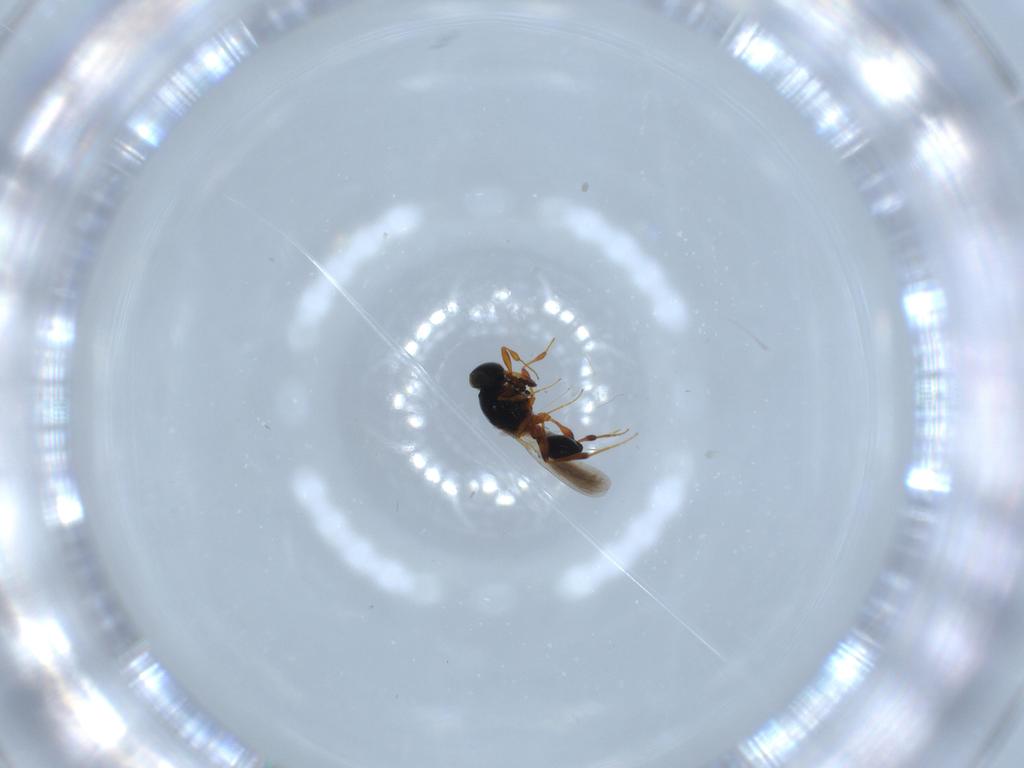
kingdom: Animalia
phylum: Arthropoda
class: Insecta
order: Hymenoptera
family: Platygastridae
